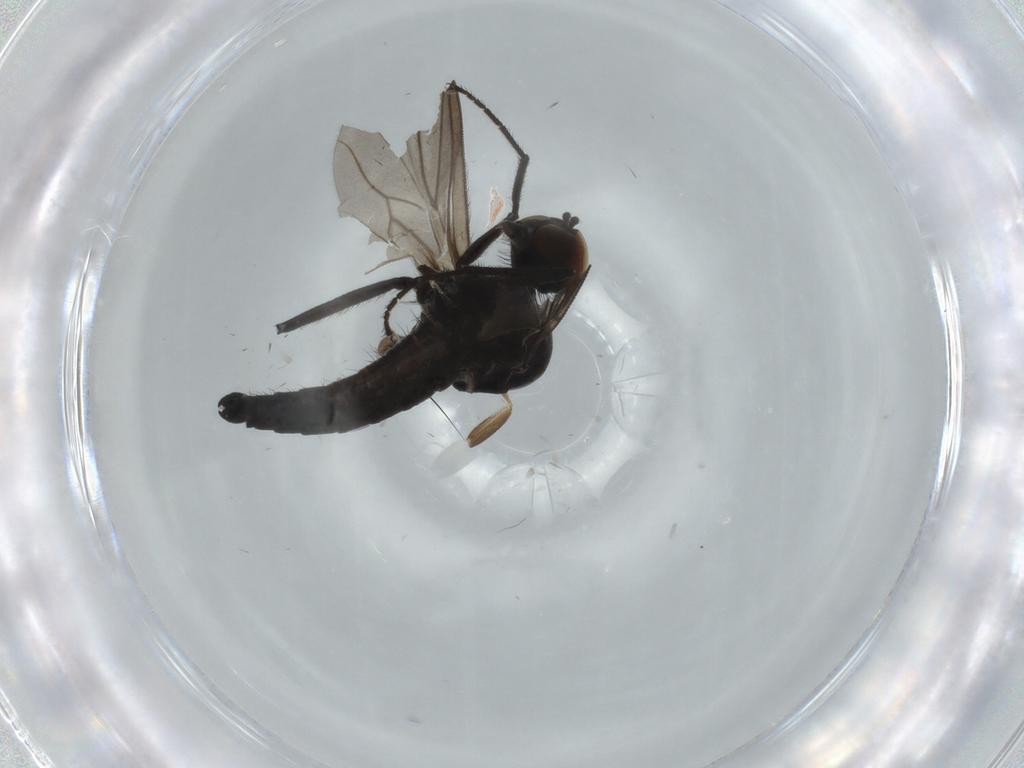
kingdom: Animalia
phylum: Arthropoda
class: Insecta
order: Diptera
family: Hybotidae
